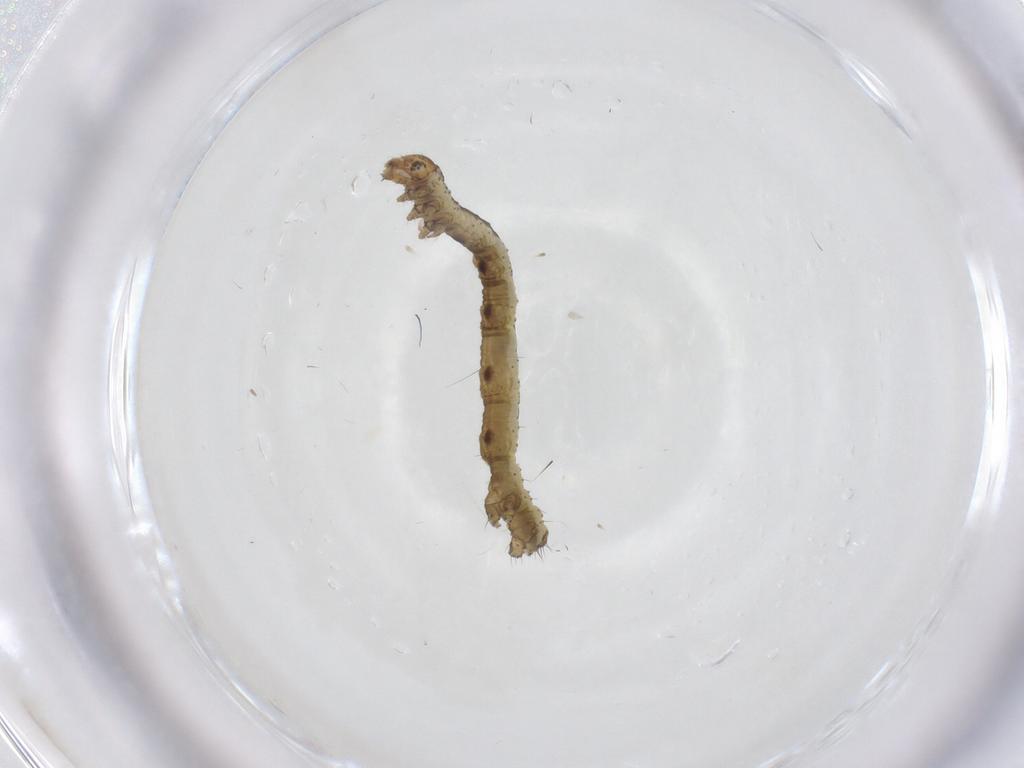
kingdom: Animalia
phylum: Arthropoda
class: Insecta
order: Lepidoptera
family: Geometridae
